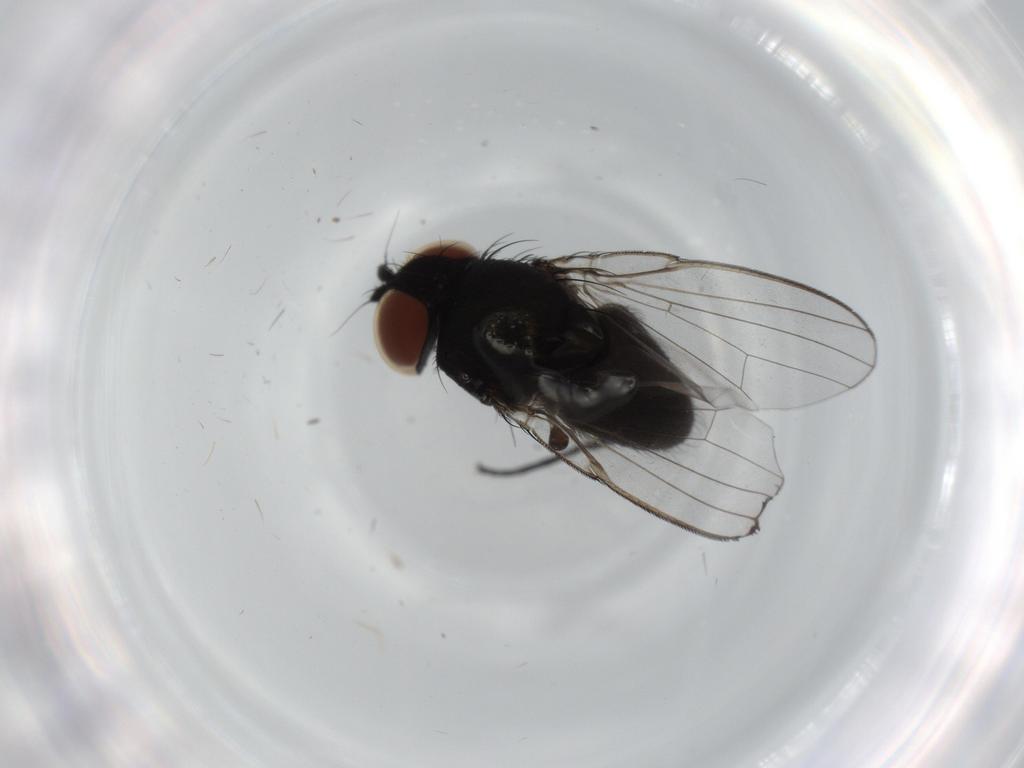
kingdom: Animalia
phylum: Arthropoda
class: Insecta
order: Diptera
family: Milichiidae
